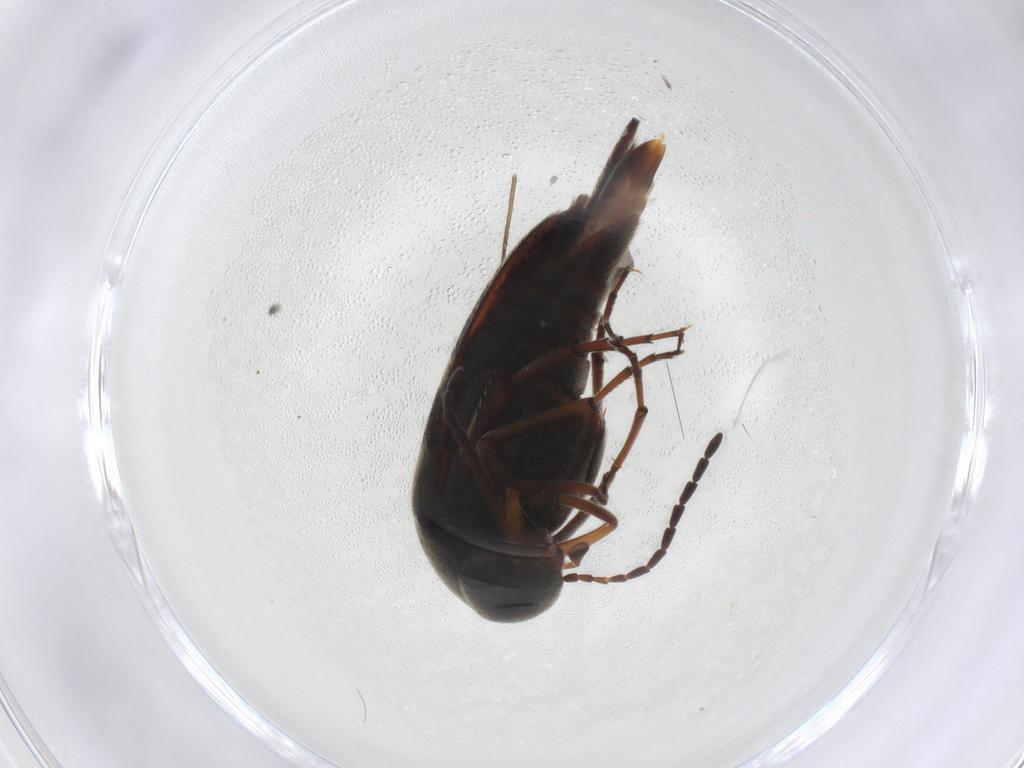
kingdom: Animalia
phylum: Arthropoda
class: Insecta
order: Coleoptera
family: Mordellidae
